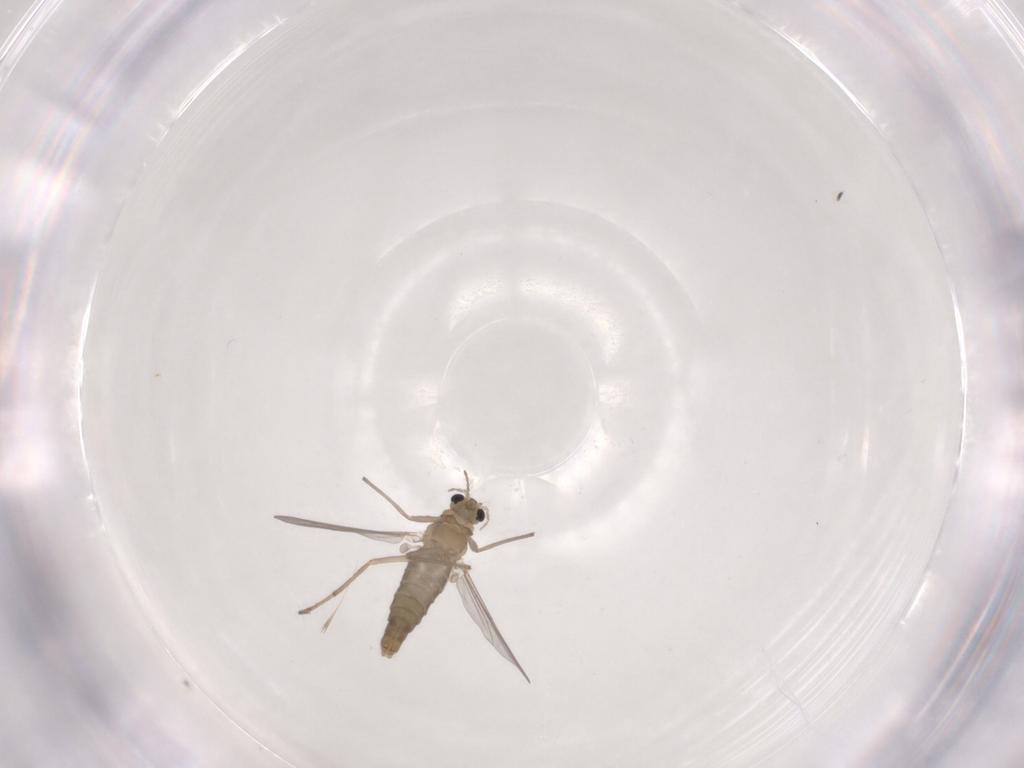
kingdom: Animalia
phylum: Arthropoda
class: Insecta
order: Diptera
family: Chironomidae
